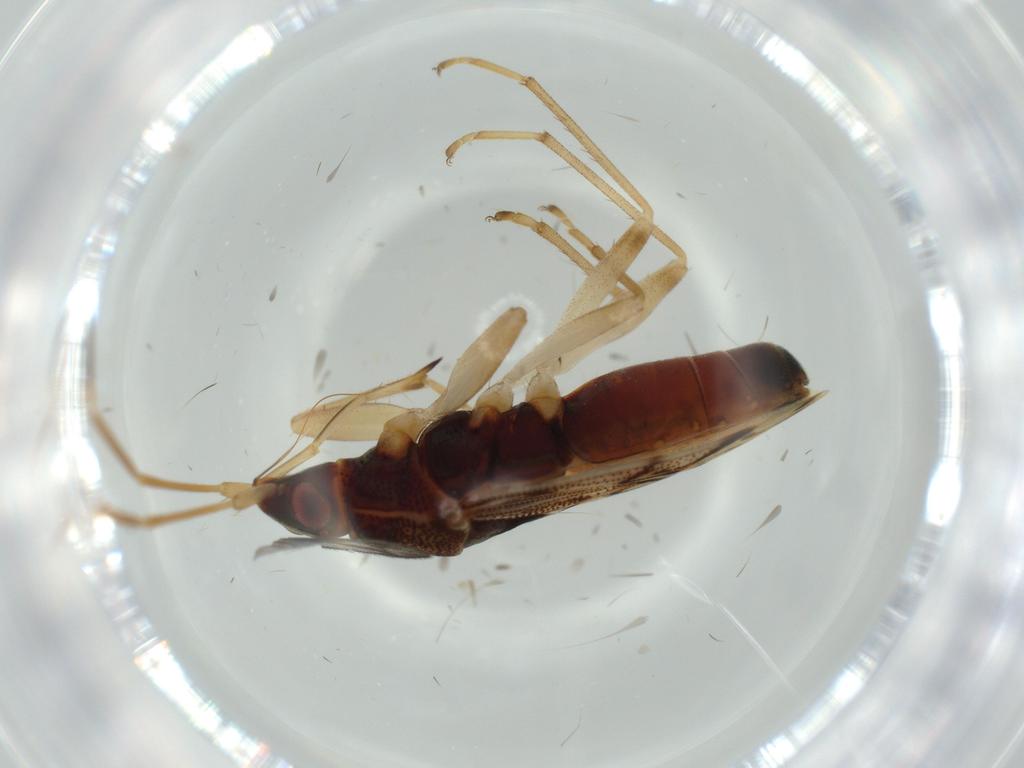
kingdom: Animalia
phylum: Arthropoda
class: Insecta
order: Hemiptera
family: Rhyparochromidae
